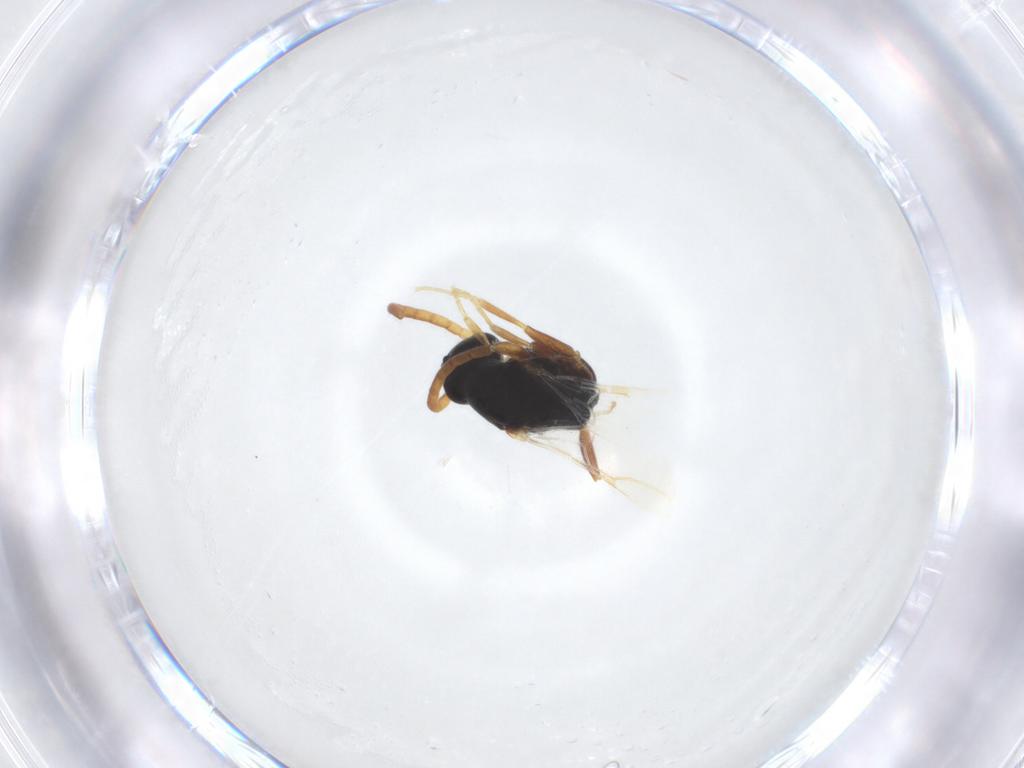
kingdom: Animalia
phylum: Arthropoda
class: Insecta
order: Hymenoptera
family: Bethylidae
